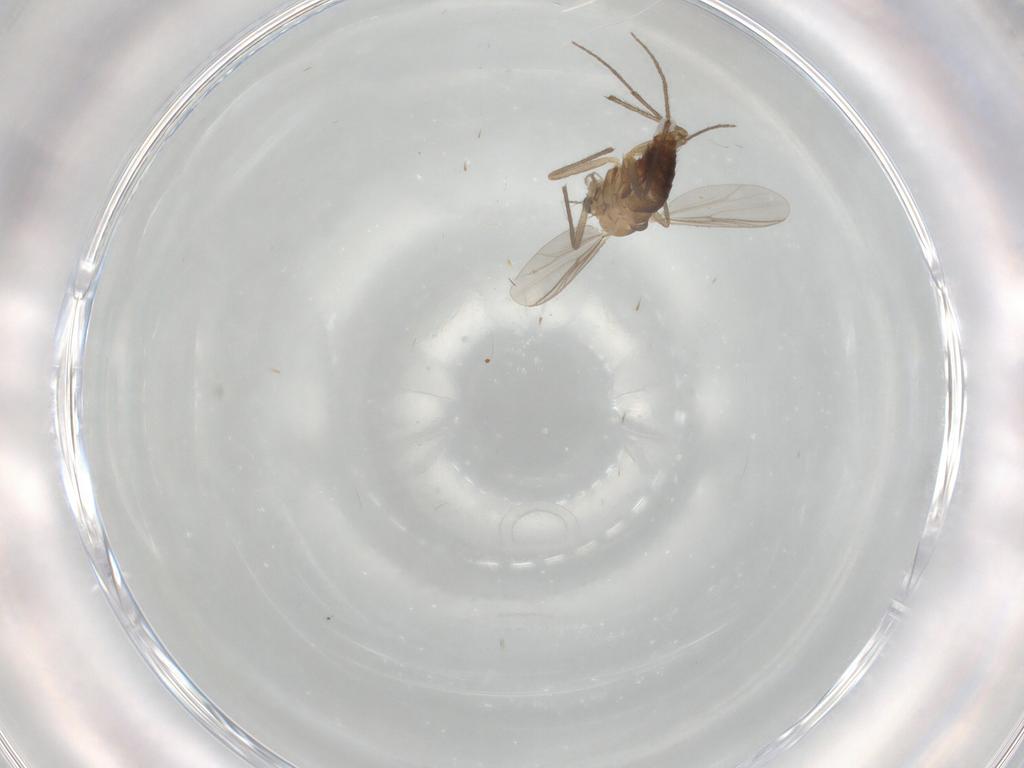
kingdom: Animalia
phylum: Arthropoda
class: Insecta
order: Diptera
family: Chironomidae
